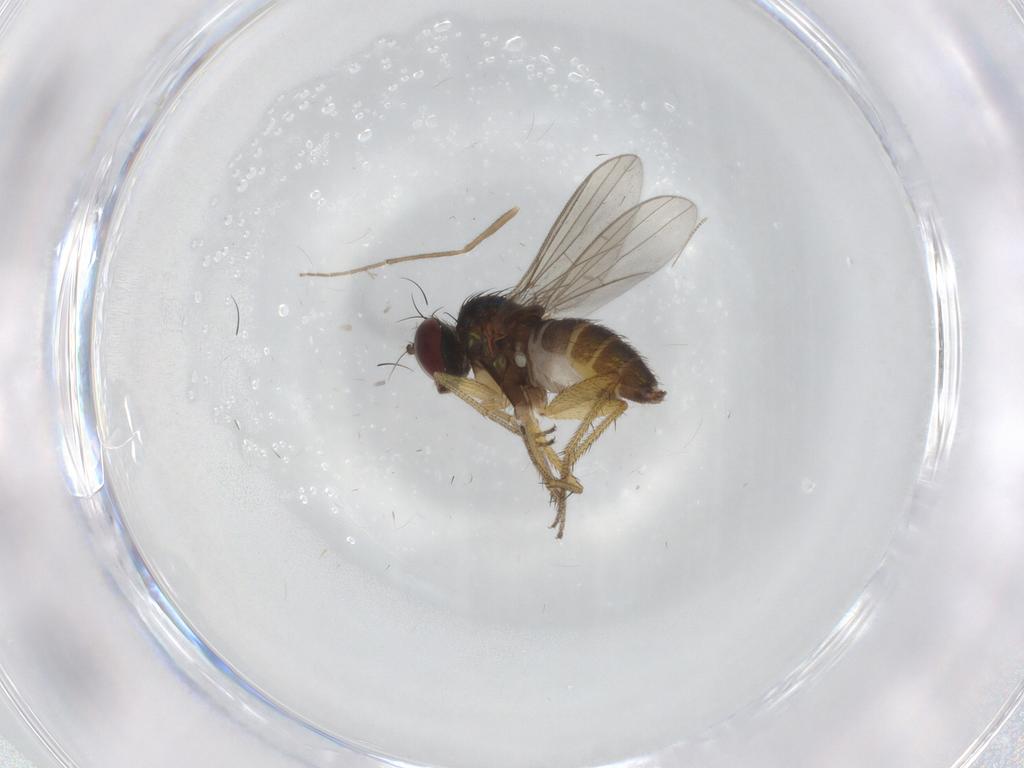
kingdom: Animalia
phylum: Arthropoda
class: Insecta
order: Diptera
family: Chironomidae
